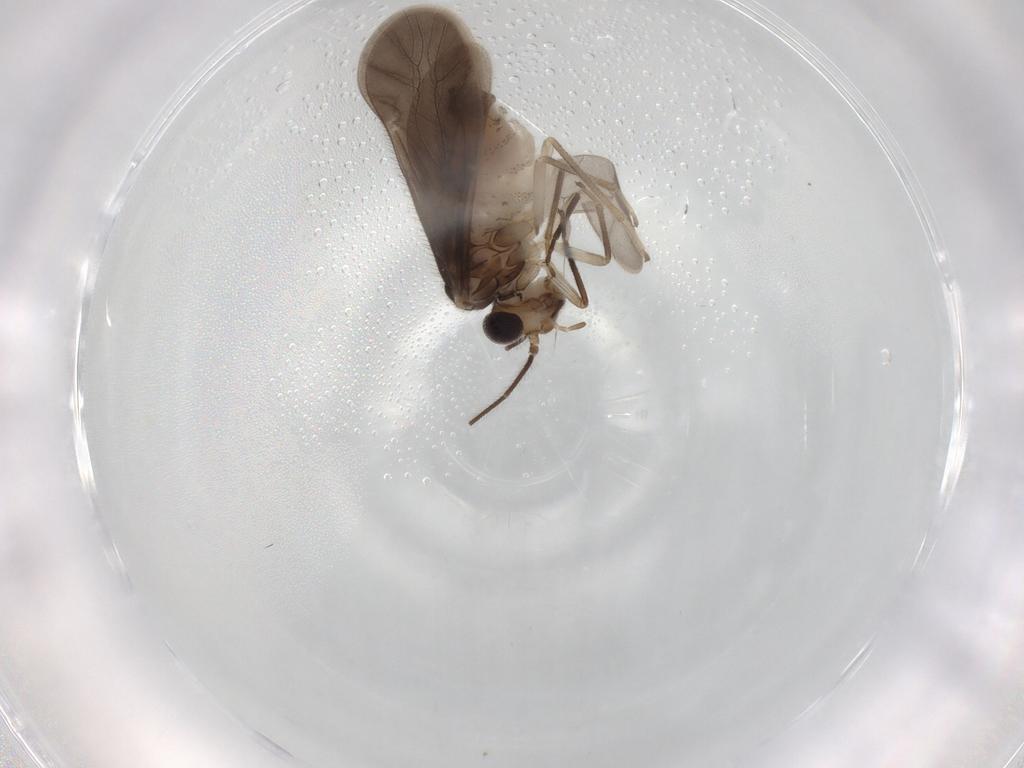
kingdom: Animalia
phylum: Arthropoda
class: Insecta
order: Psocodea
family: Caeciliusidae
